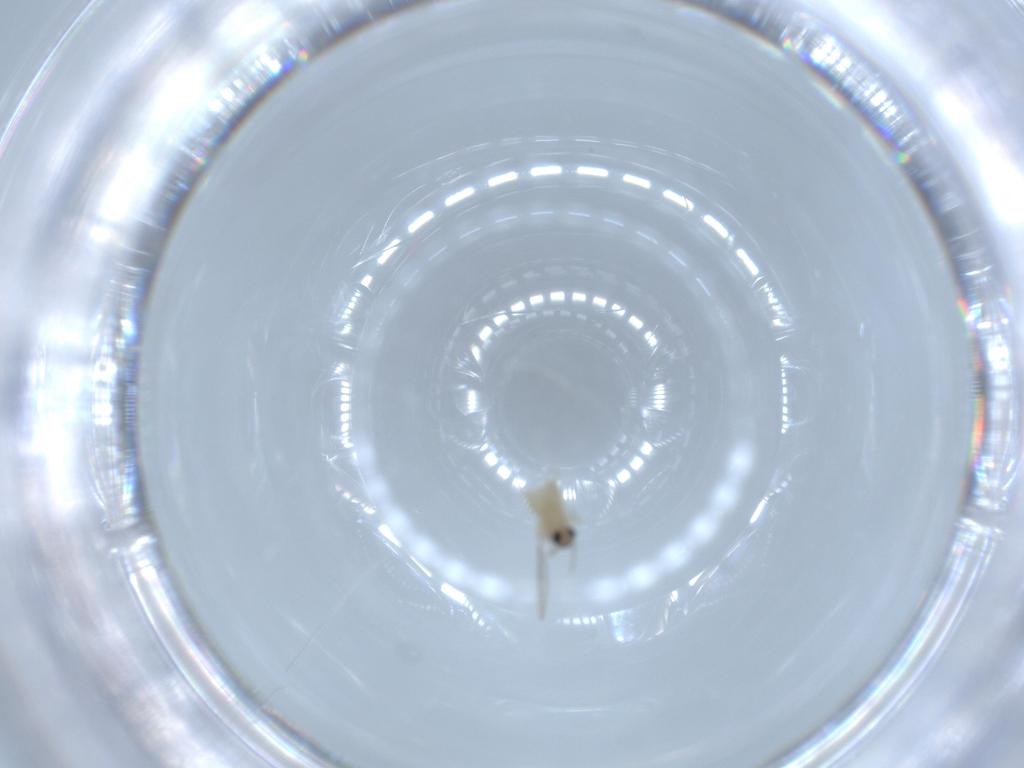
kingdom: Animalia
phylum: Arthropoda
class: Insecta
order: Diptera
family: Cecidomyiidae
